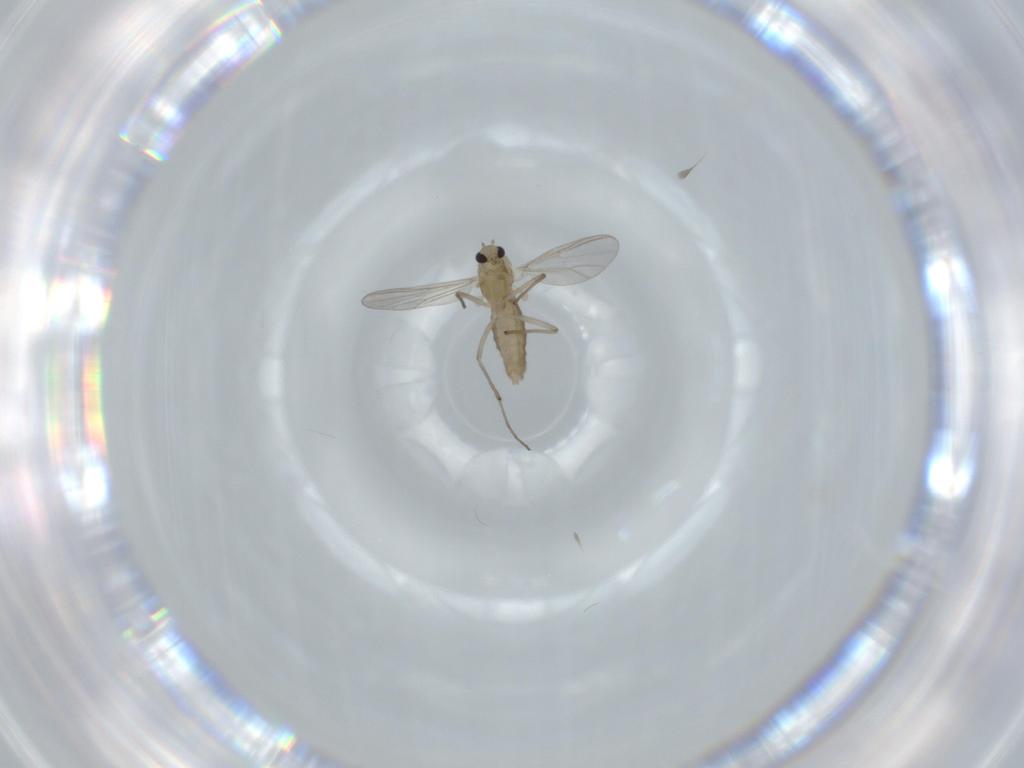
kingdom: Animalia
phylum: Arthropoda
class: Insecta
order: Diptera
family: Chironomidae
